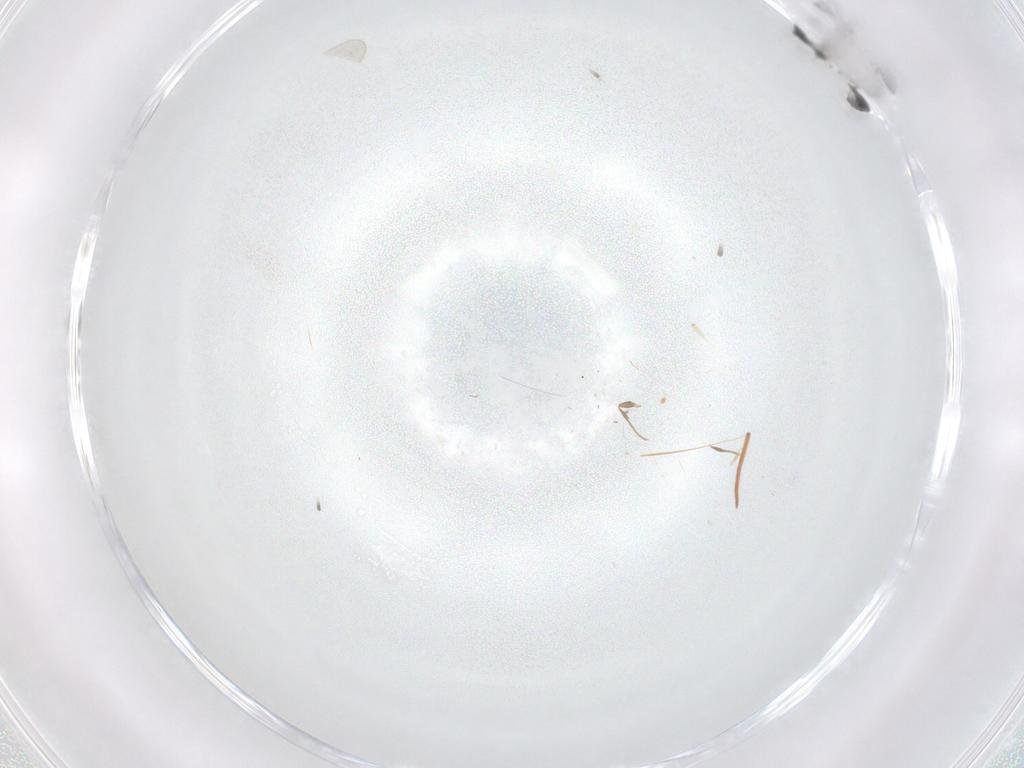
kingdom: Animalia
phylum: Arthropoda
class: Insecta
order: Hymenoptera
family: Formicidae
